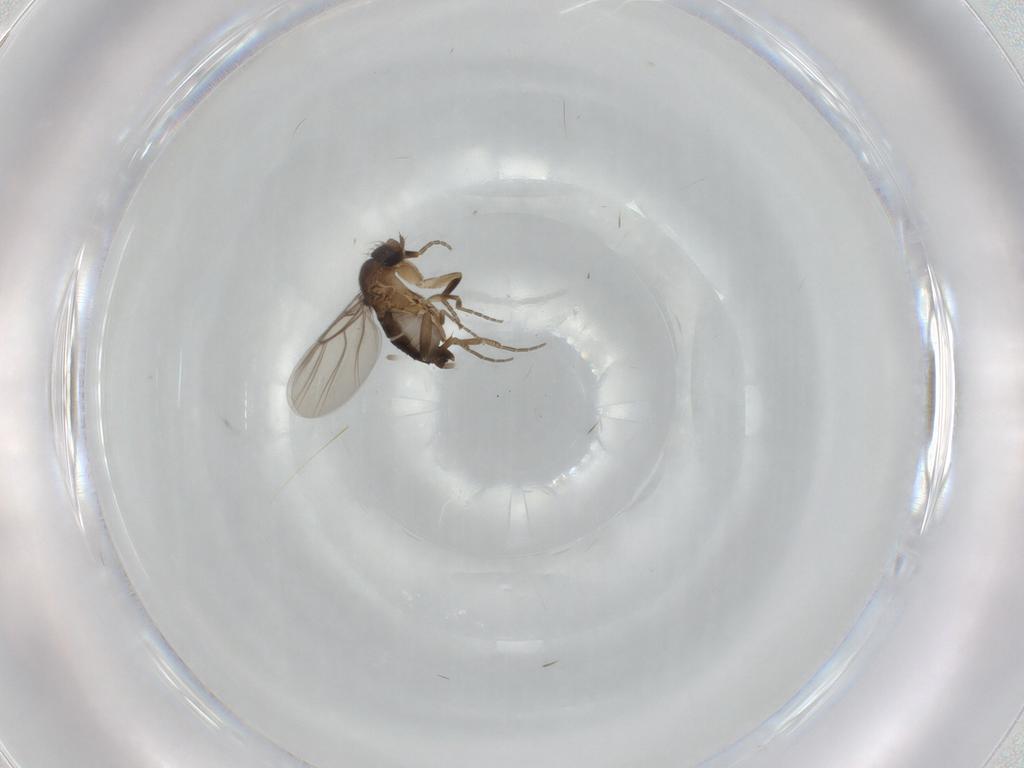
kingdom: Animalia
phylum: Arthropoda
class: Insecta
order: Diptera
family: Phoridae
